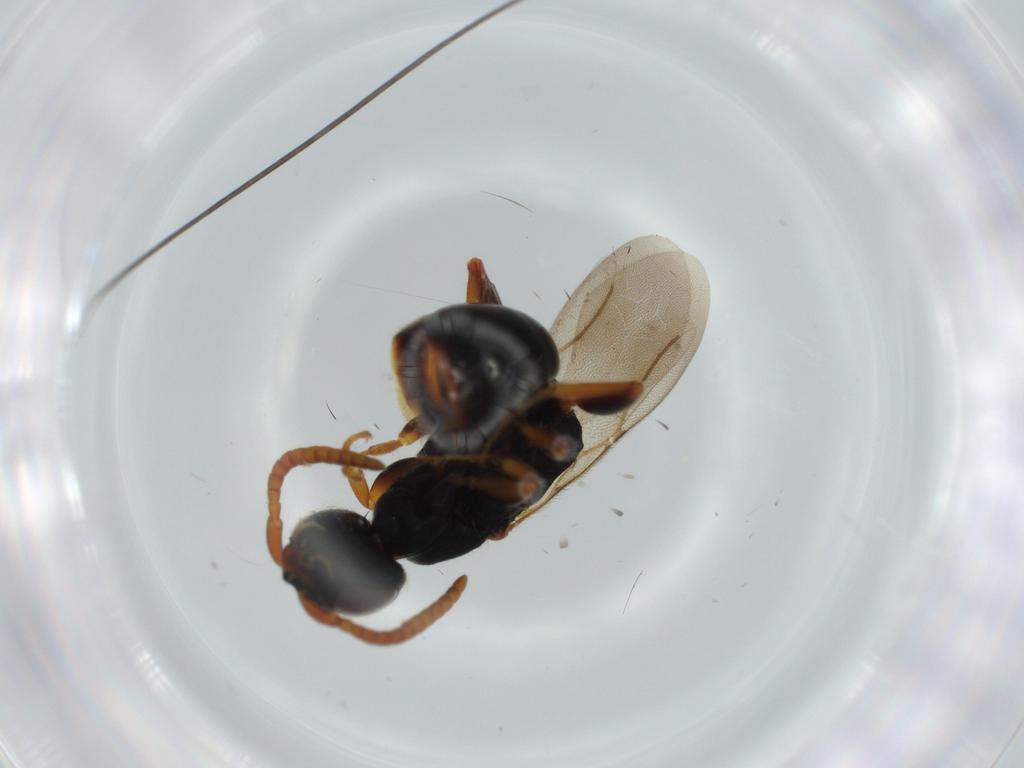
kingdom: Animalia
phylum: Arthropoda
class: Insecta
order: Hymenoptera
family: Bethylidae
